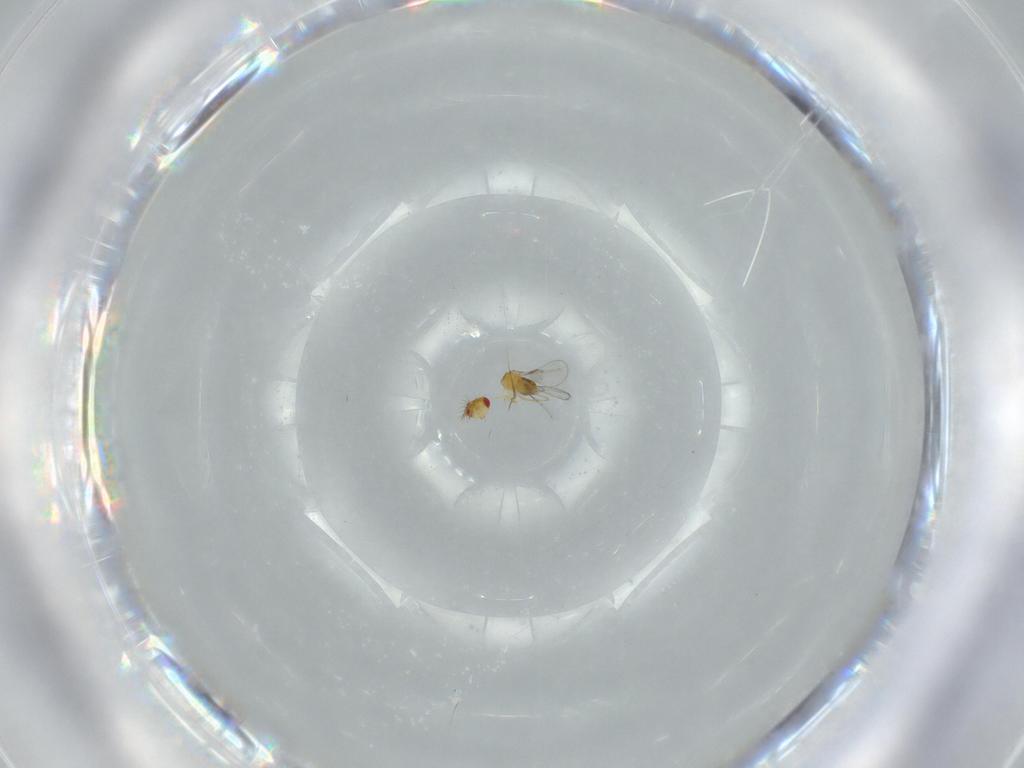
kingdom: Animalia
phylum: Arthropoda
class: Insecta
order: Hymenoptera
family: Trichogrammatidae
